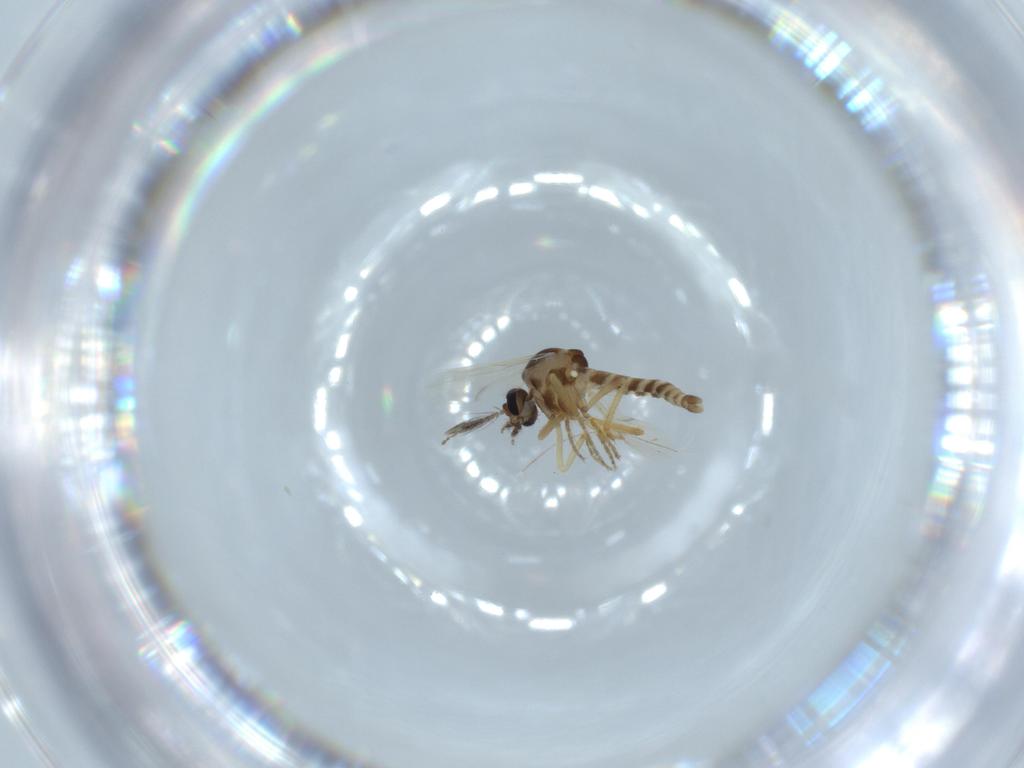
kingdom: Animalia
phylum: Arthropoda
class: Insecta
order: Diptera
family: Ceratopogonidae
